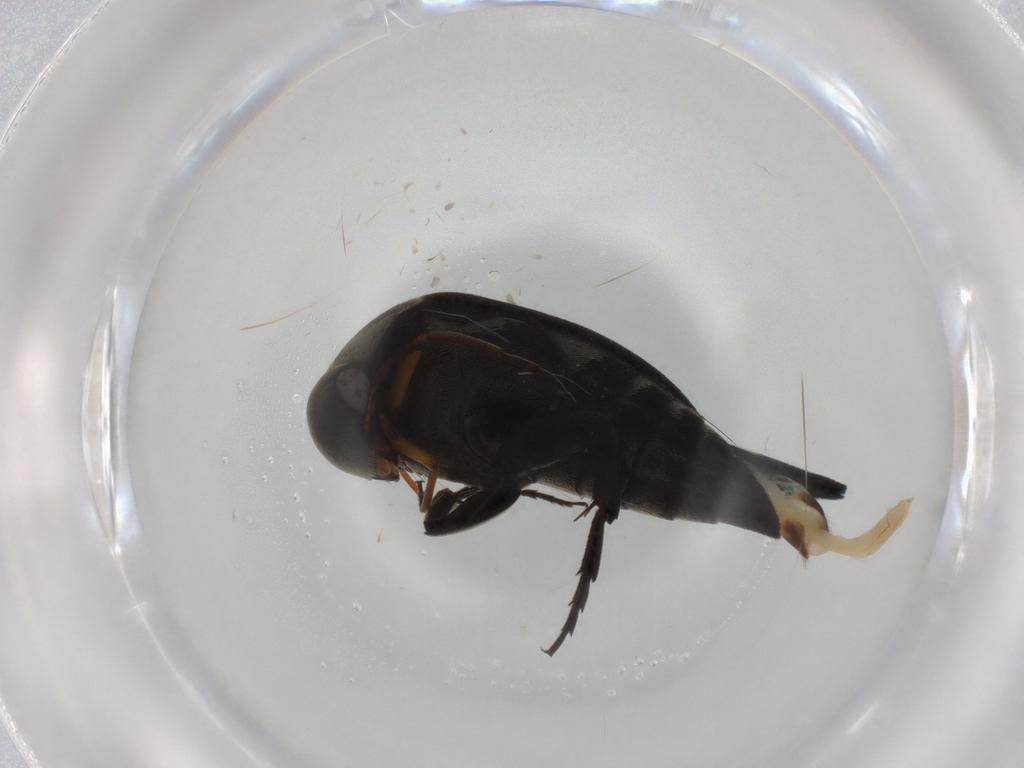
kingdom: Animalia
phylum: Arthropoda
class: Insecta
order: Coleoptera
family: Mordellidae
